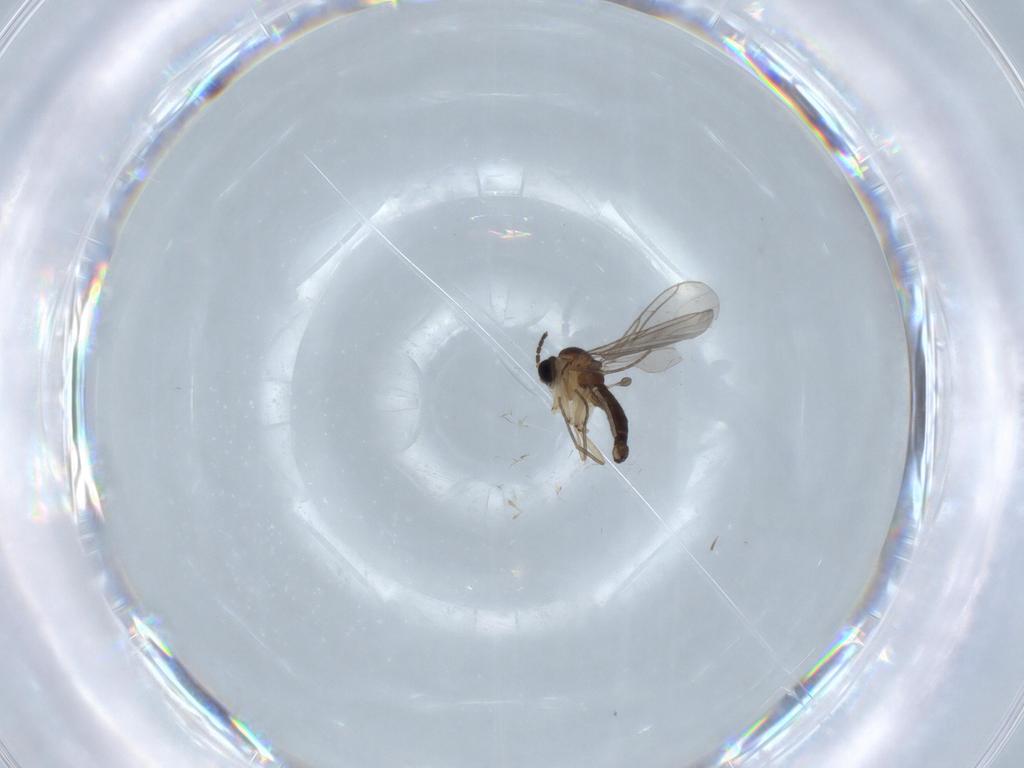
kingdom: Animalia
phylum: Arthropoda
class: Insecta
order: Diptera
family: Sciaridae
